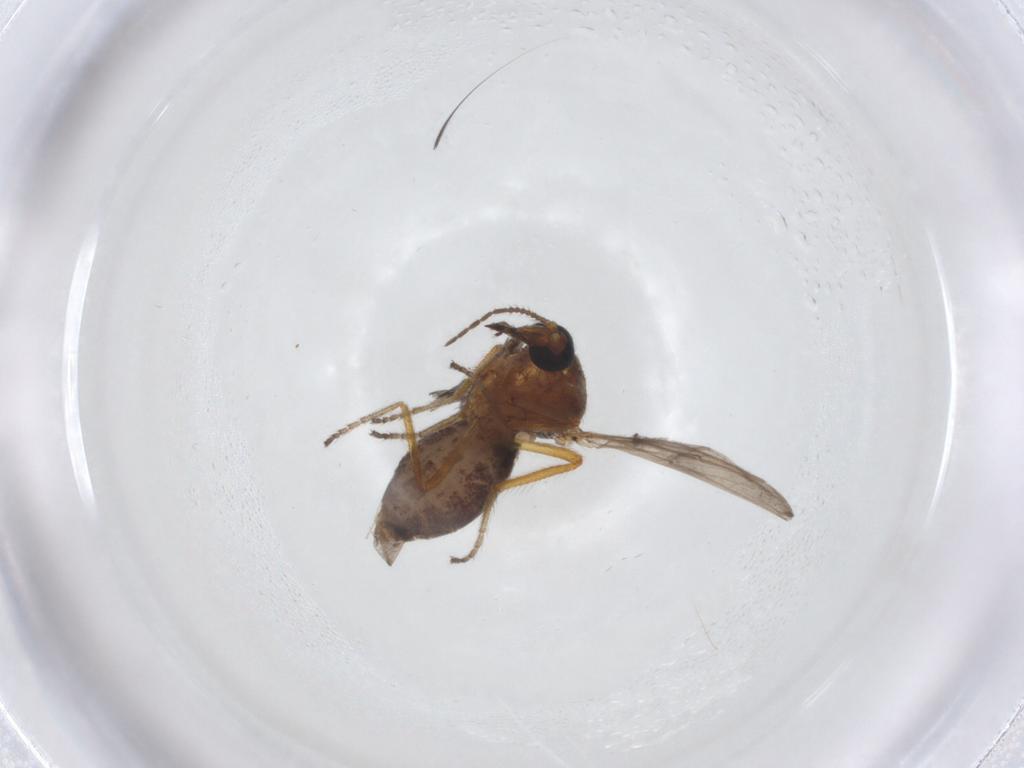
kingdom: Animalia
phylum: Arthropoda
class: Insecta
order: Diptera
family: Ceratopogonidae
